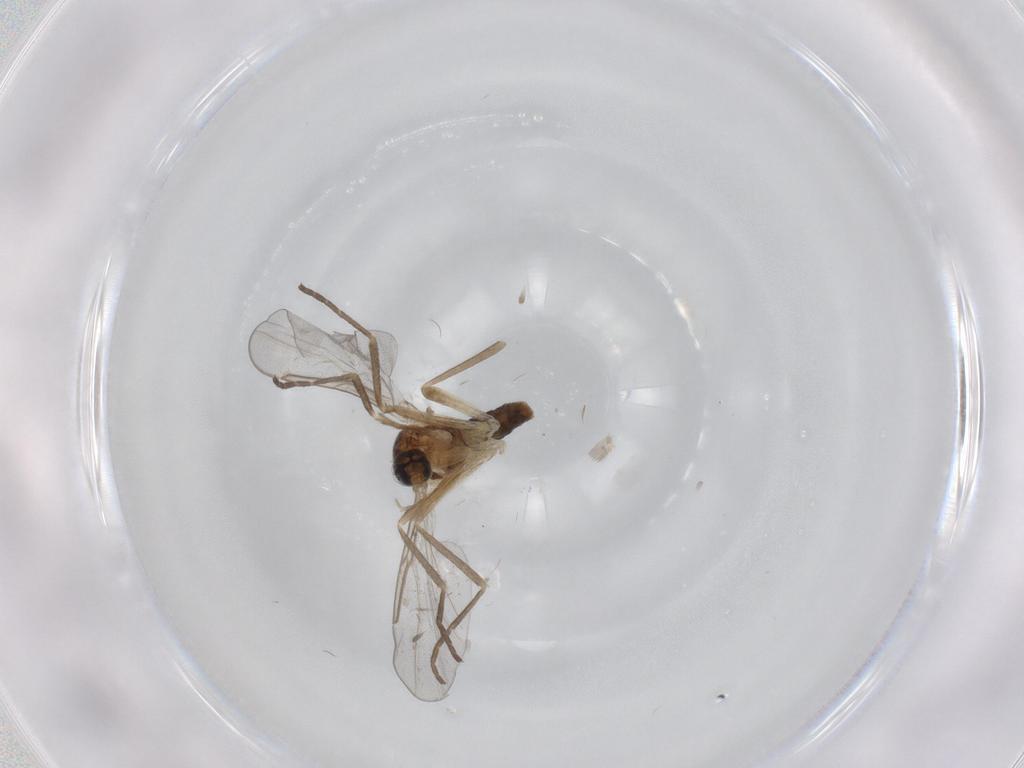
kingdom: Animalia
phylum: Arthropoda
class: Insecta
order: Diptera
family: Cecidomyiidae
